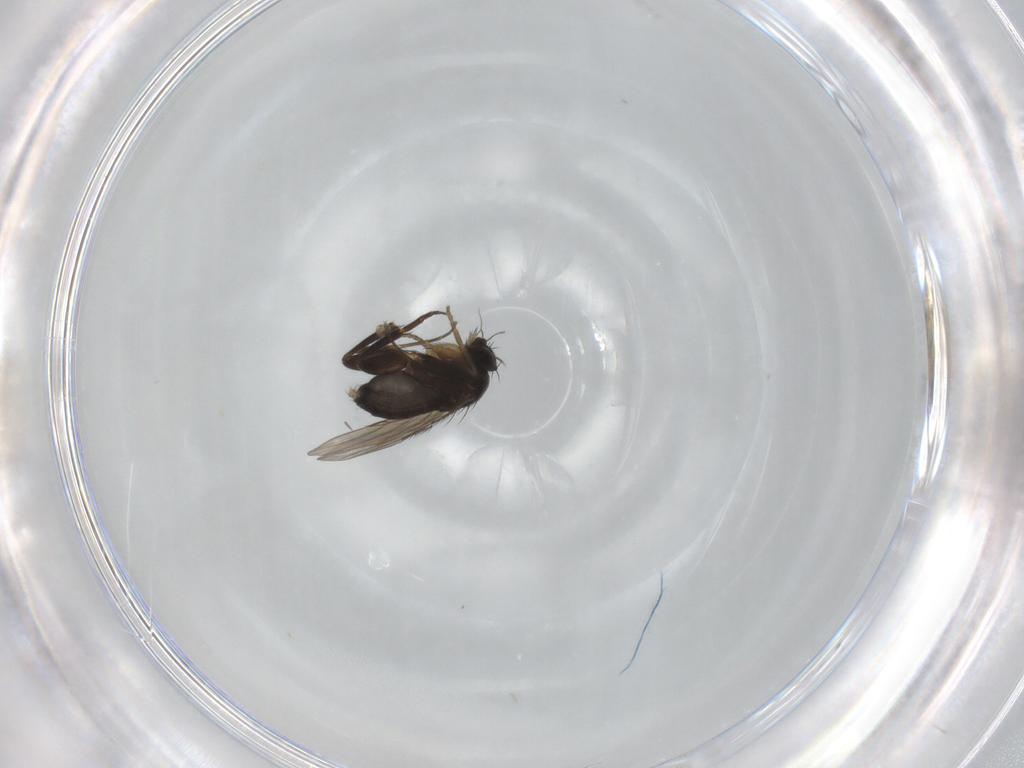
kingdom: Animalia
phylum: Arthropoda
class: Insecta
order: Diptera
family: Phoridae
